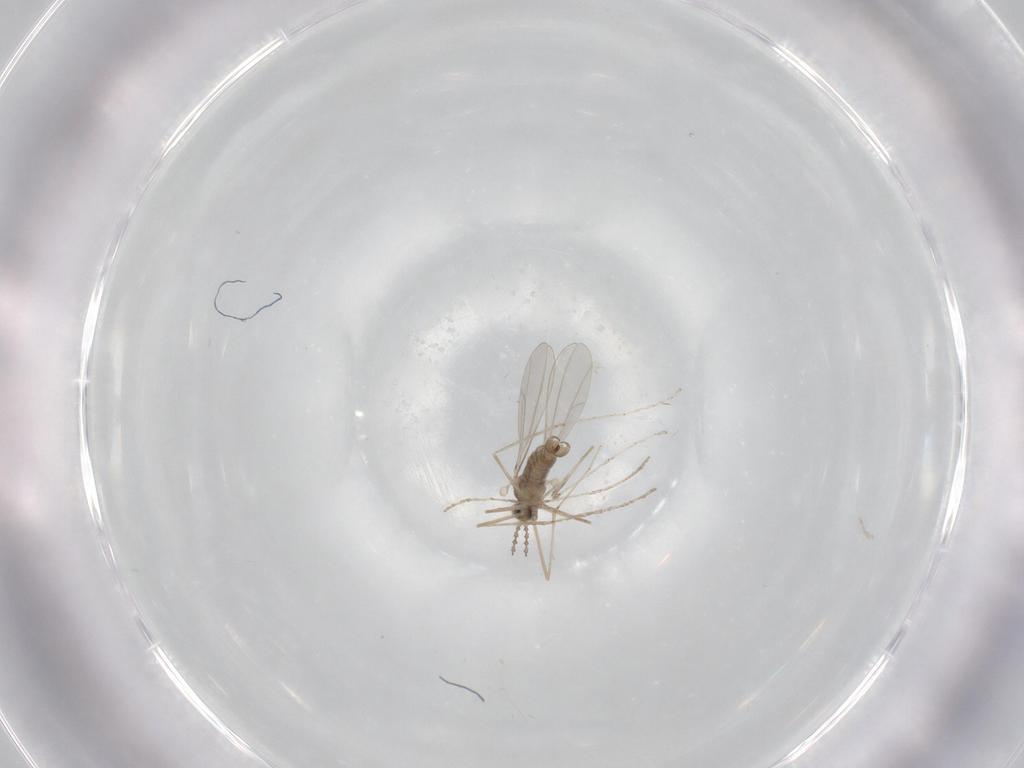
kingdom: Animalia
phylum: Arthropoda
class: Insecta
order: Diptera
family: Cecidomyiidae
